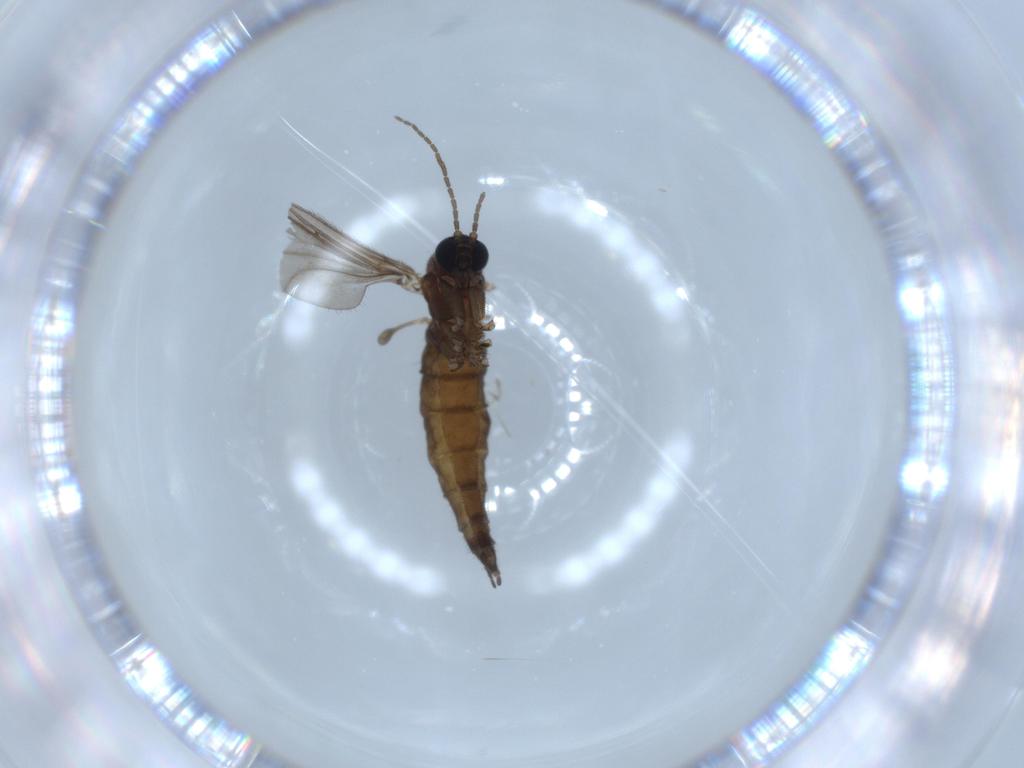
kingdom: Animalia
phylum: Arthropoda
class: Insecta
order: Diptera
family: Sciaridae
